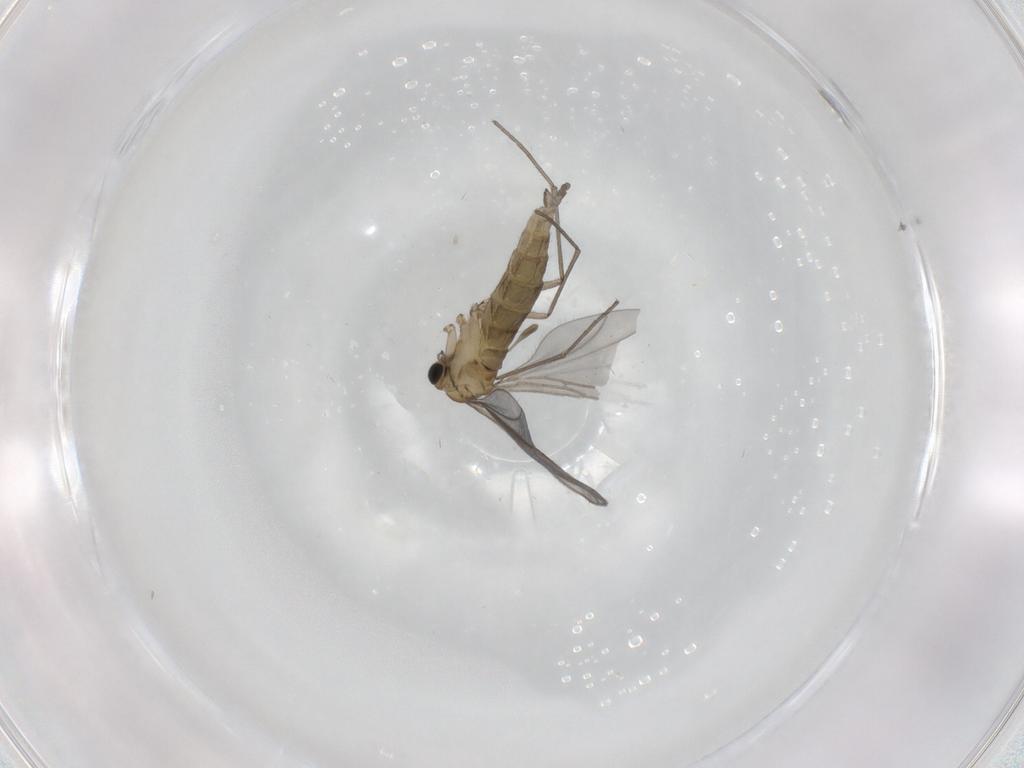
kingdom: Animalia
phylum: Arthropoda
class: Insecta
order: Diptera
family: Sciaridae
